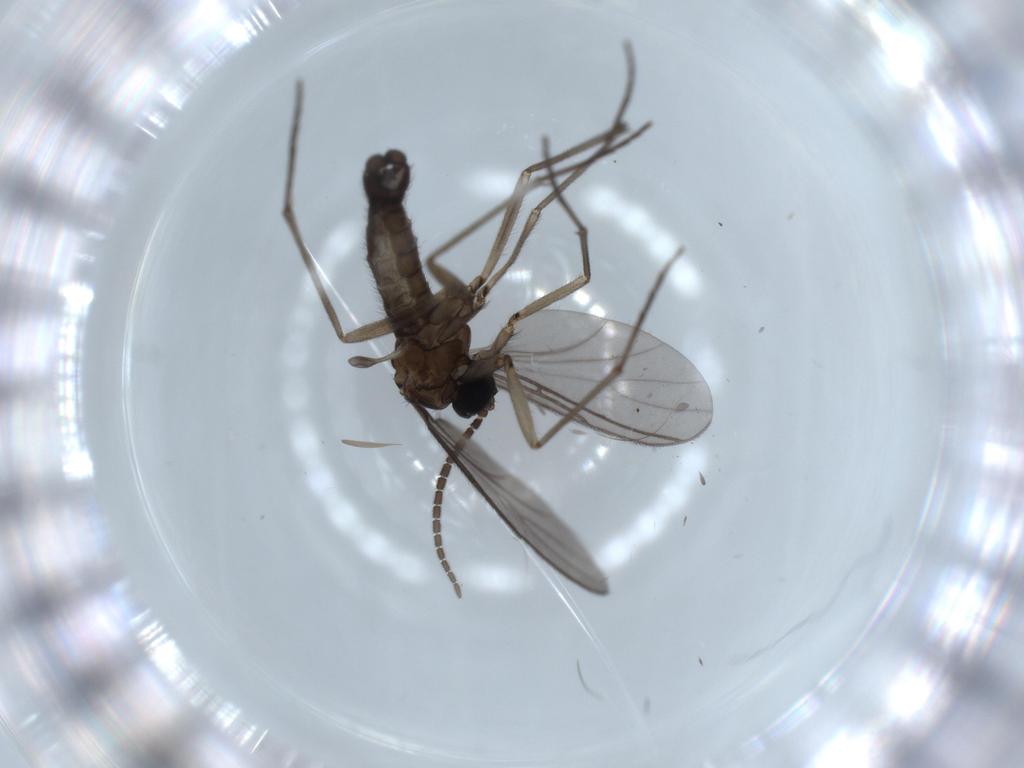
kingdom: Animalia
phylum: Arthropoda
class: Insecta
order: Diptera
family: Sciaridae
